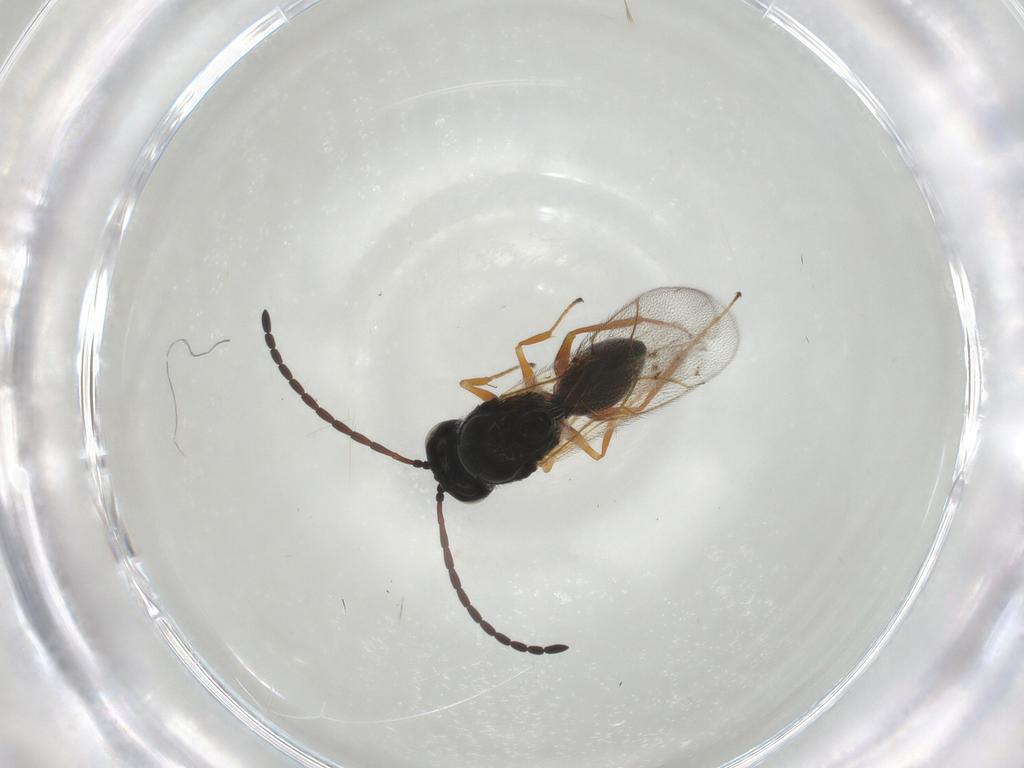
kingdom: Animalia
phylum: Arthropoda
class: Insecta
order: Hymenoptera
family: Figitidae
